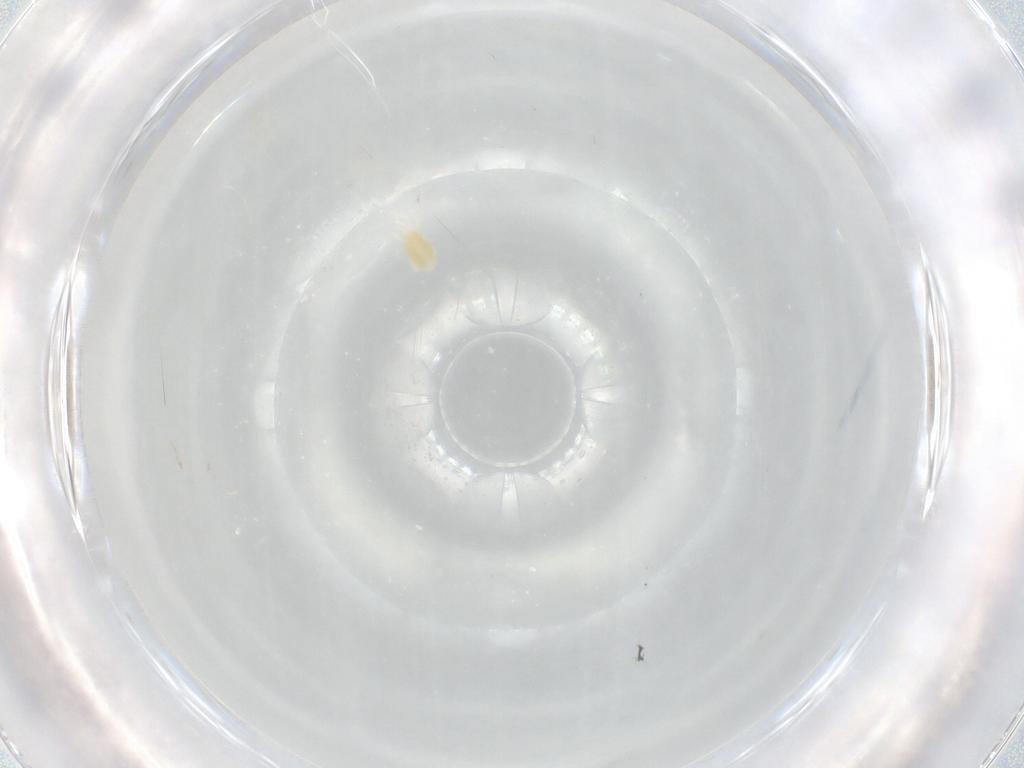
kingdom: Animalia
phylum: Arthropoda
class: Arachnida
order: Trombidiformes
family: Eupodidae
